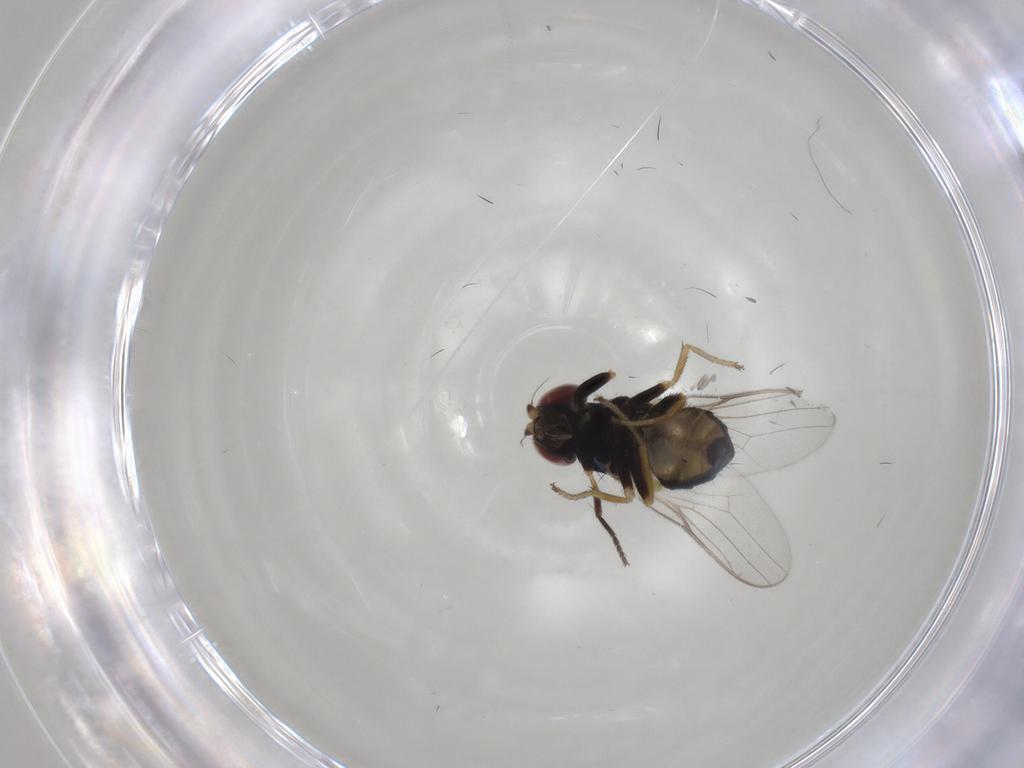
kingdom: Animalia
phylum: Arthropoda
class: Insecta
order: Diptera
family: Chloropidae
